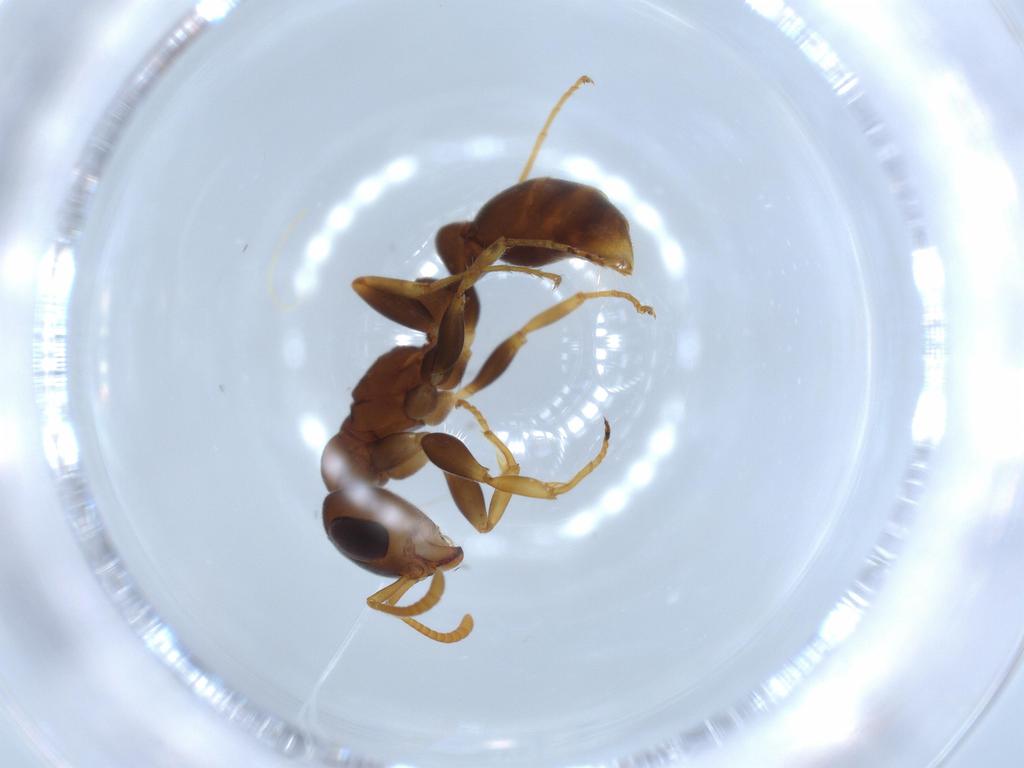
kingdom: Animalia
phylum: Arthropoda
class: Insecta
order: Hymenoptera
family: Formicidae
